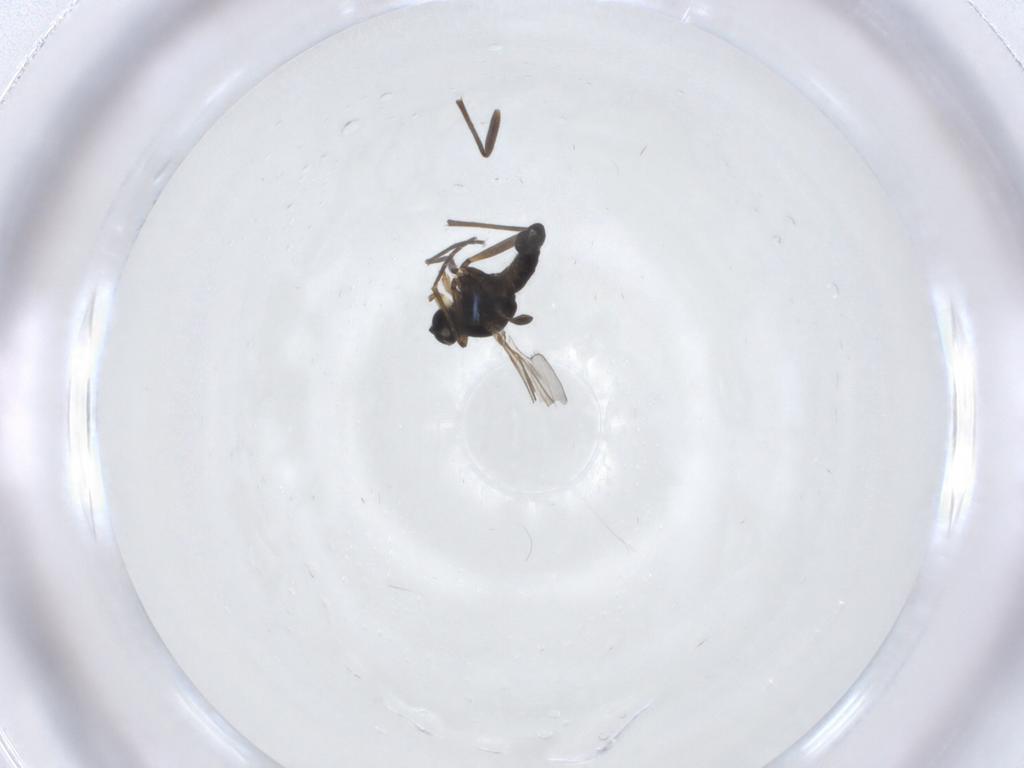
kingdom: Animalia
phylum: Arthropoda
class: Insecta
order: Diptera
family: Sciaridae
